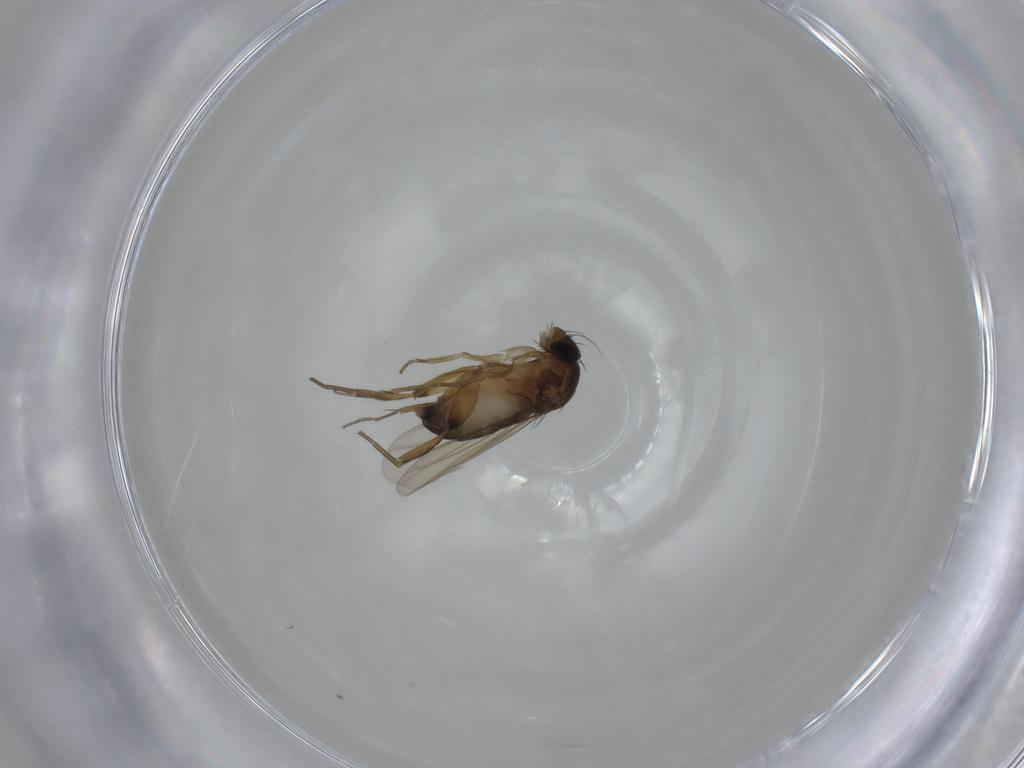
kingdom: Animalia
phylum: Arthropoda
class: Insecta
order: Diptera
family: Phoridae
